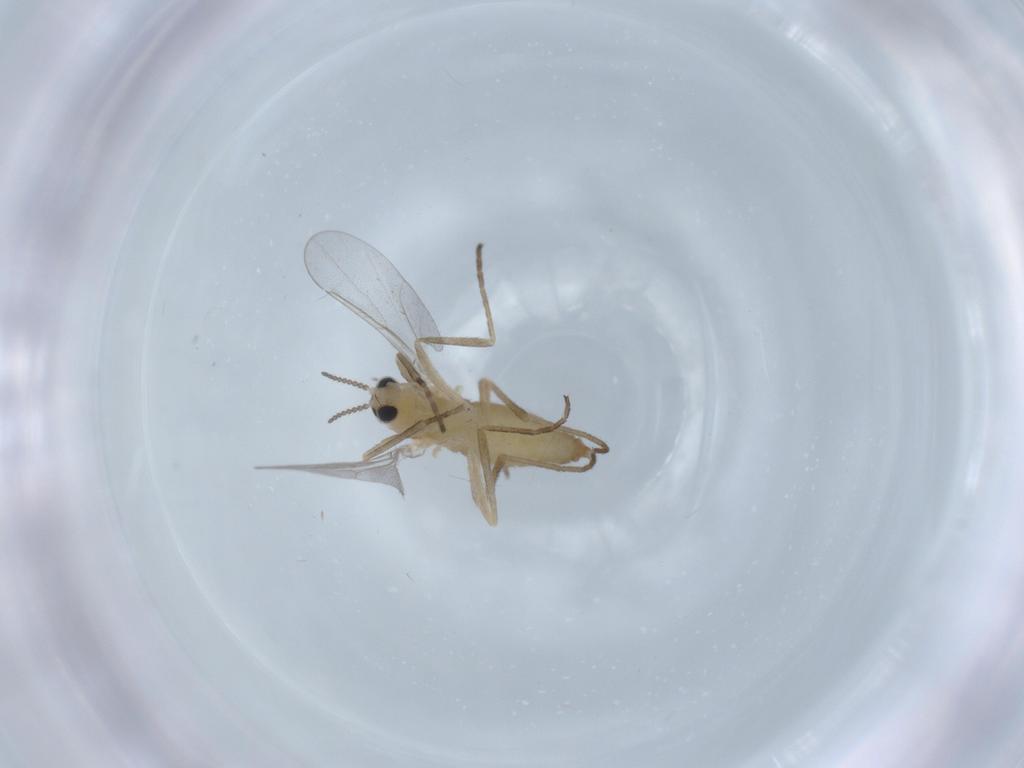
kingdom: Animalia
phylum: Arthropoda
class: Insecta
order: Diptera
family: Cecidomyiidae
